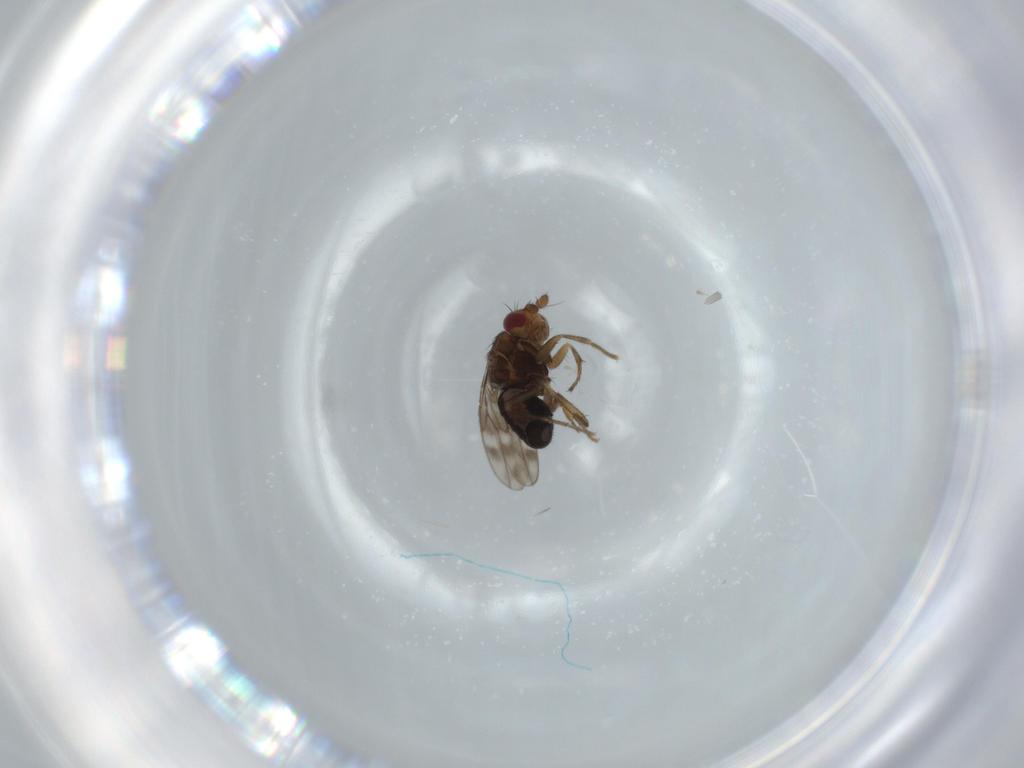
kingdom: Animalia
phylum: Arthropoda
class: Insecta
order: Diptera
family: Sphaeroceridae
